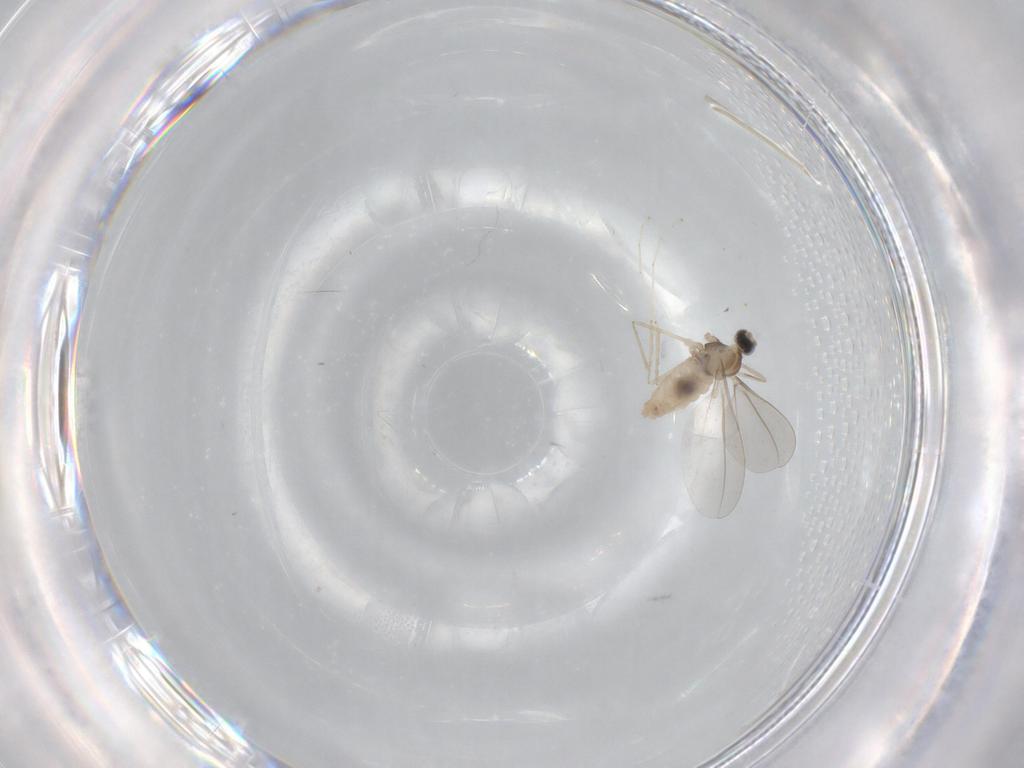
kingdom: Animalia
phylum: Arthropoda
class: Insecta
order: Diptera
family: Cecidomyiidae
